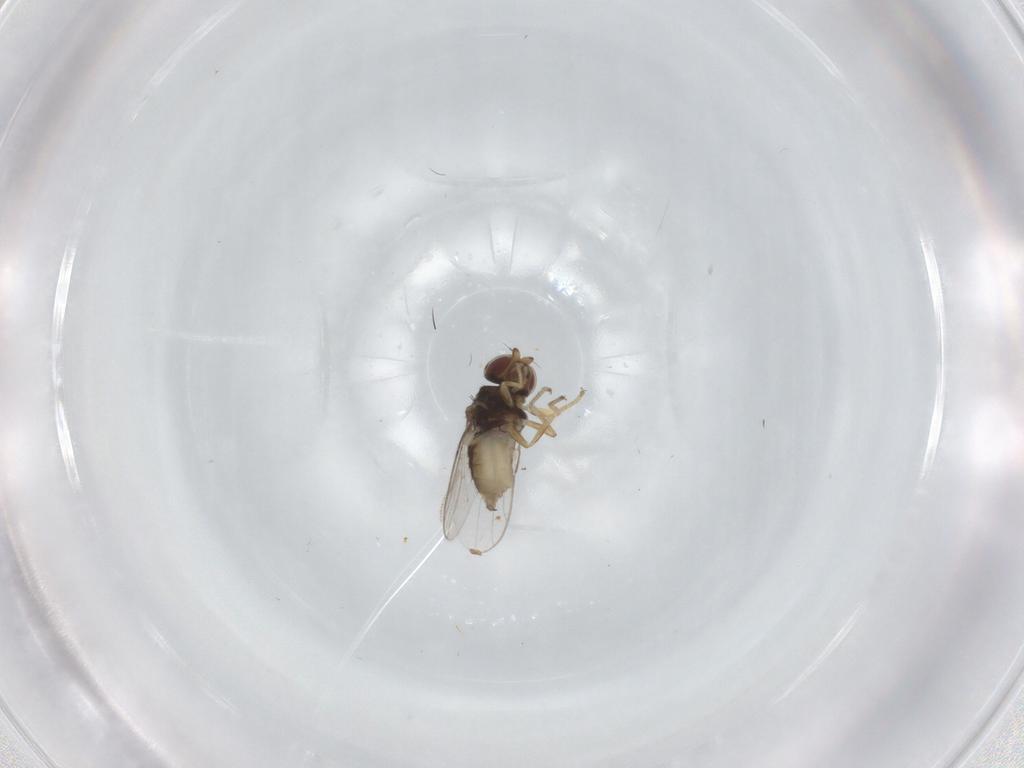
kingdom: Animalia
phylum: Arthropoda
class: Insecta
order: Diptera
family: Chloropidae
